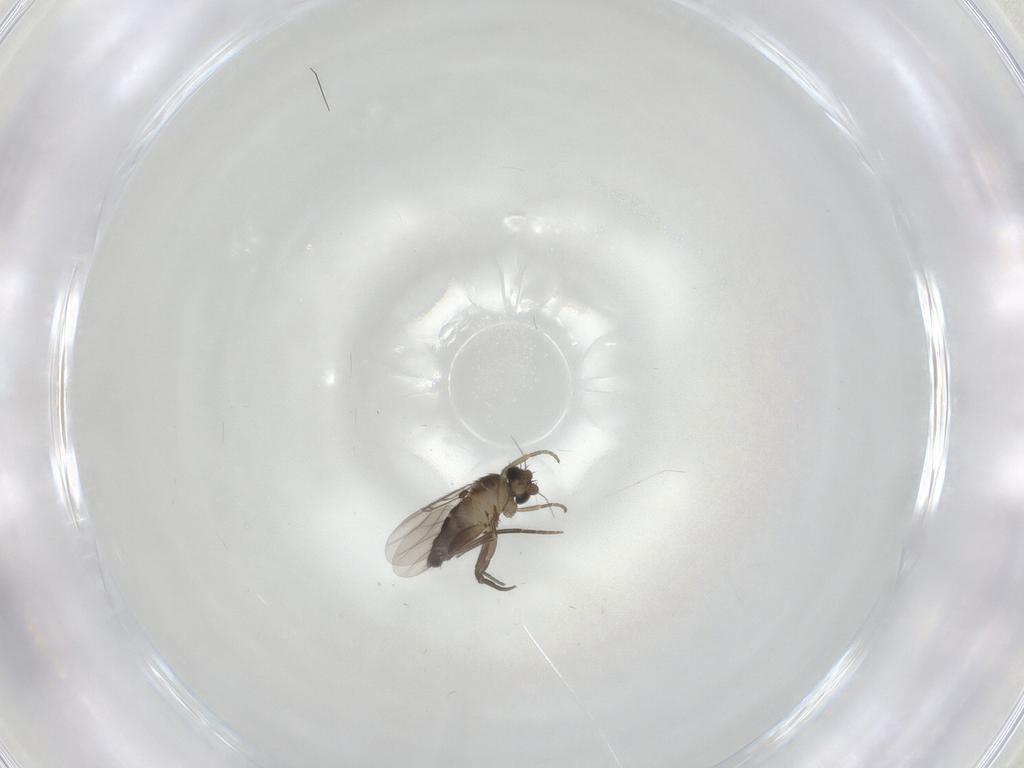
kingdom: Animalia
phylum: Arthropoda
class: Insecta
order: Diptera
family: Phoridae
